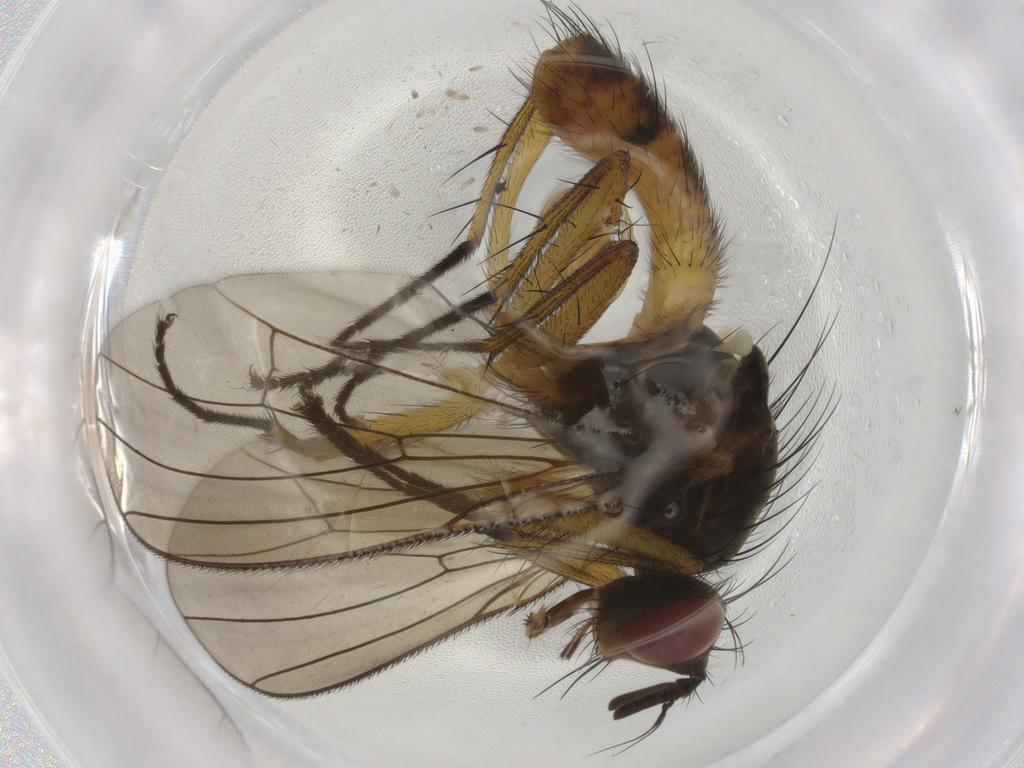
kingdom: Animalia
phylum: Arthropoda
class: Insecta
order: Diptera
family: Muscidae
